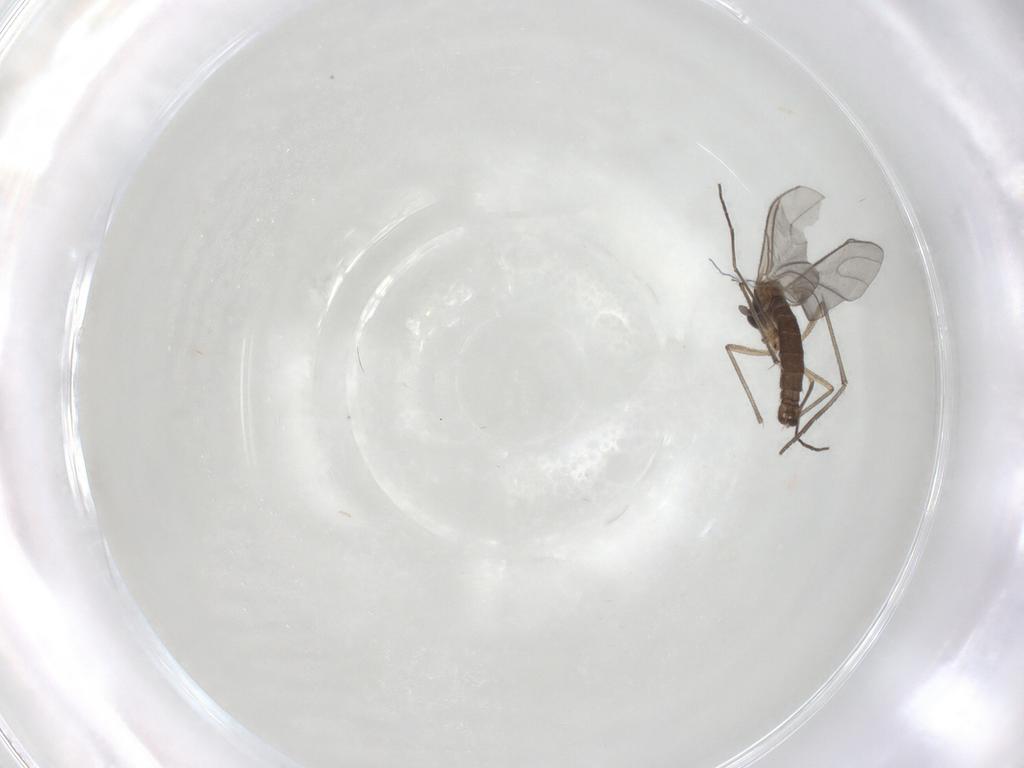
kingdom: Animalia
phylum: Arthropoda
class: Insecta
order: Diptera
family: Sciaridae
